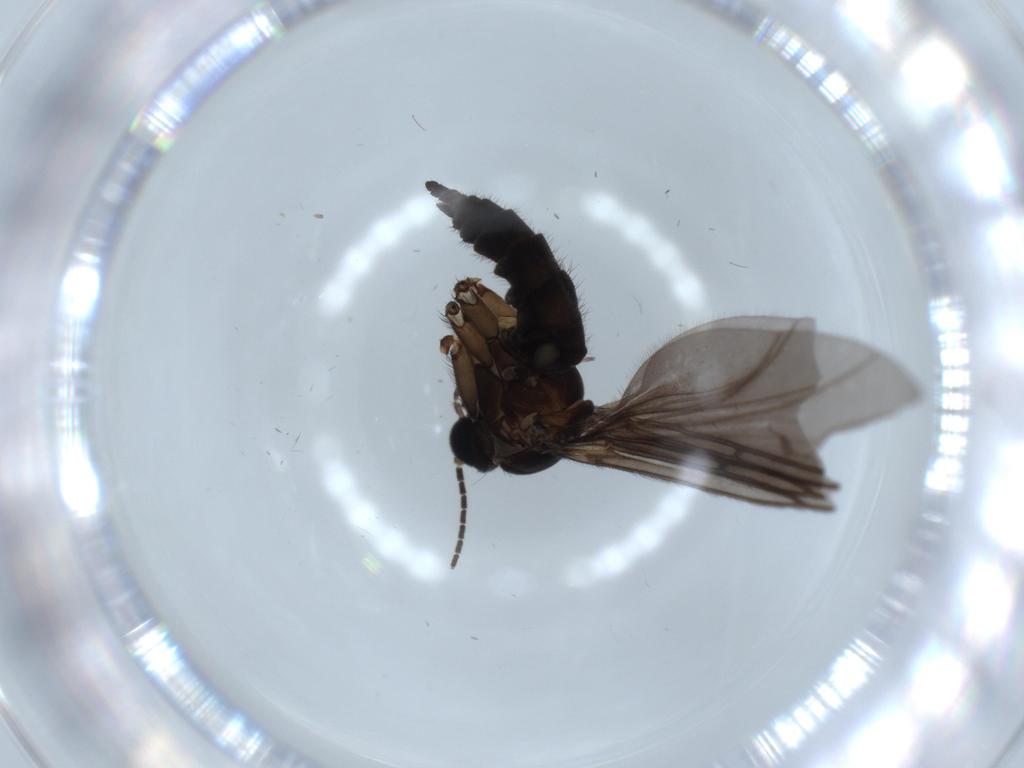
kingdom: Animalia
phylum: Arthropoda
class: Insecta
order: Diptera
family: Sciaridae
